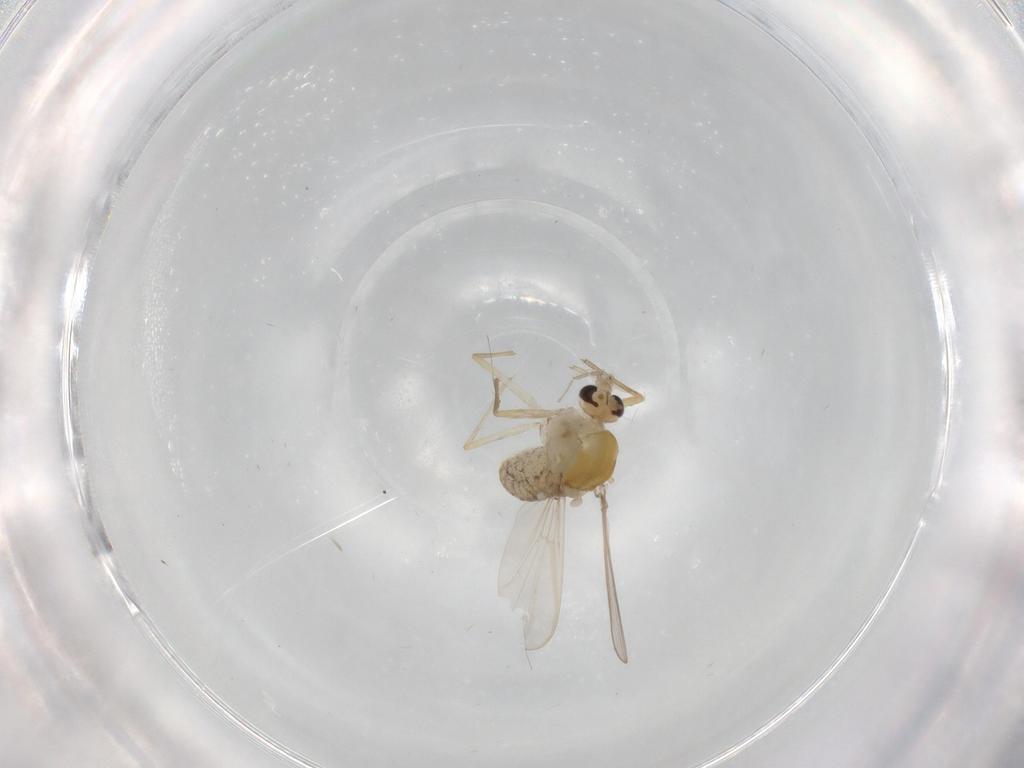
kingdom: Animalia
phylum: Arthropoda
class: Insecta
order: Diptera
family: Chironomidae
